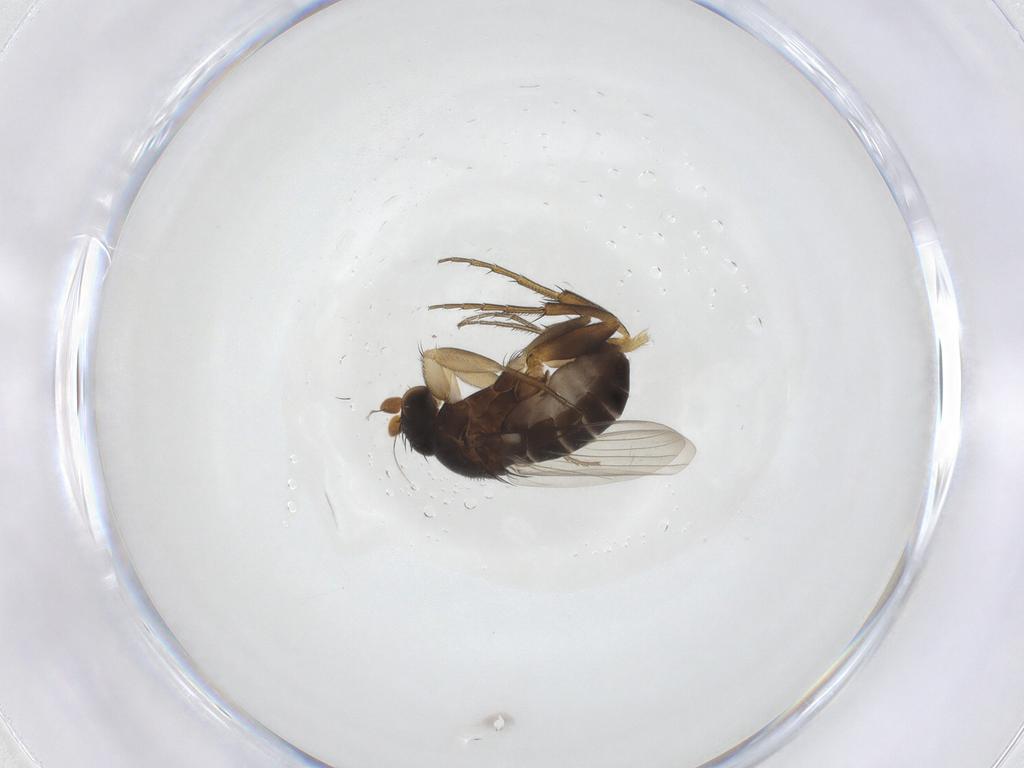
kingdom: Animalia
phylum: Arthropoda
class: Insecta
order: Diptera
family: Phoridae
